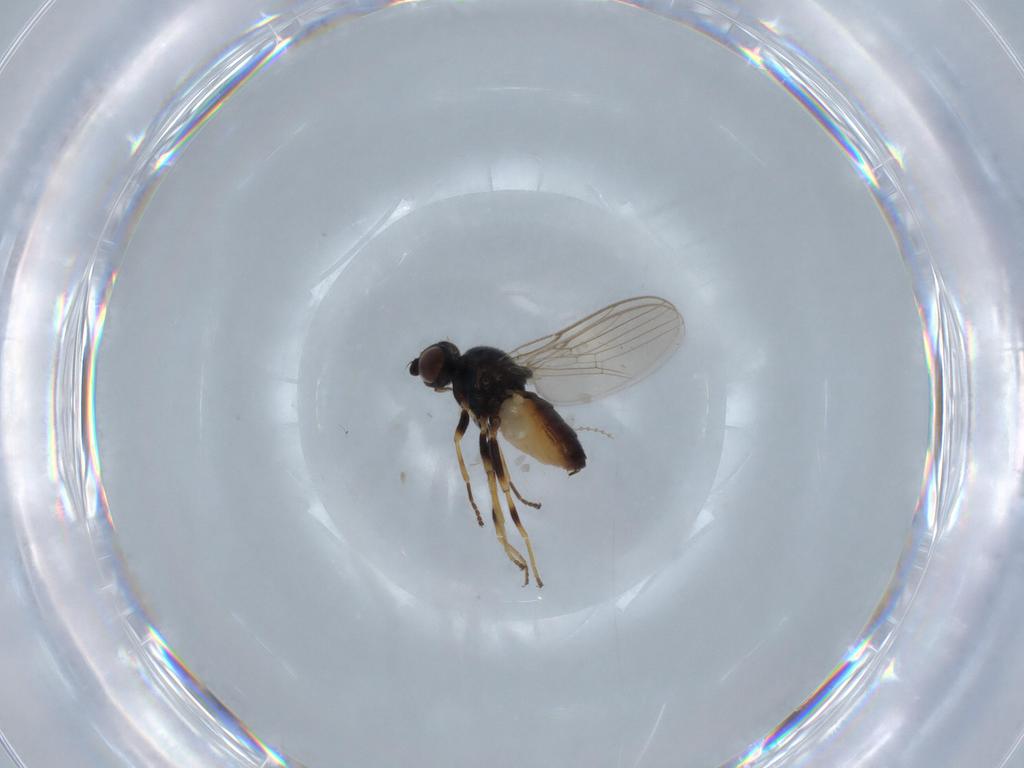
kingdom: Animalia
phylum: Arthropoda
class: Insecta
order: Diptera
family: Chloropidae
